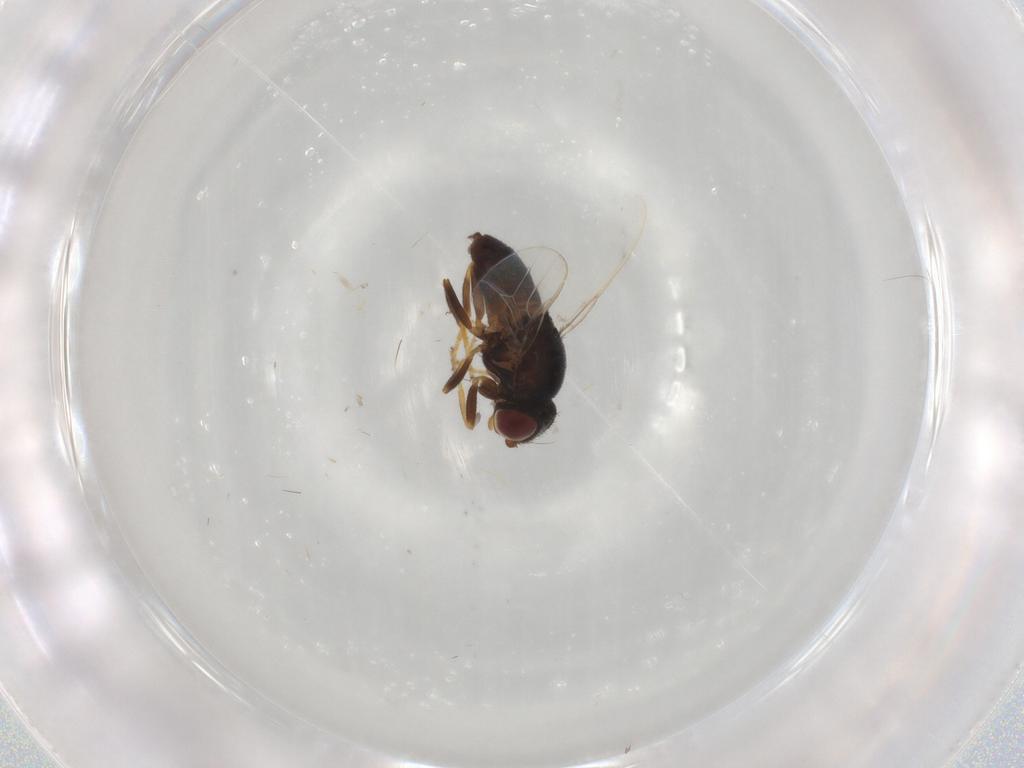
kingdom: Animalia
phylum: Arthropoda
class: Insecta
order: Diptera
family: Chloropidae
